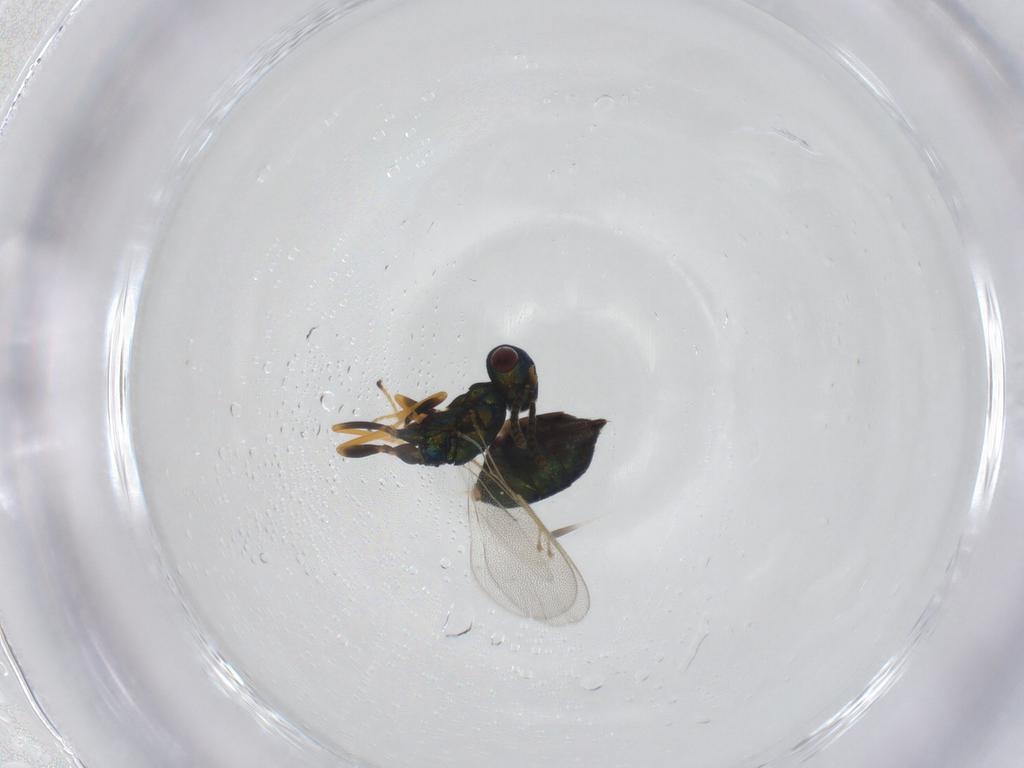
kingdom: Animalia
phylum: Arthropoda
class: Insecta
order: Hymenoptera
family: Pteromalidae
